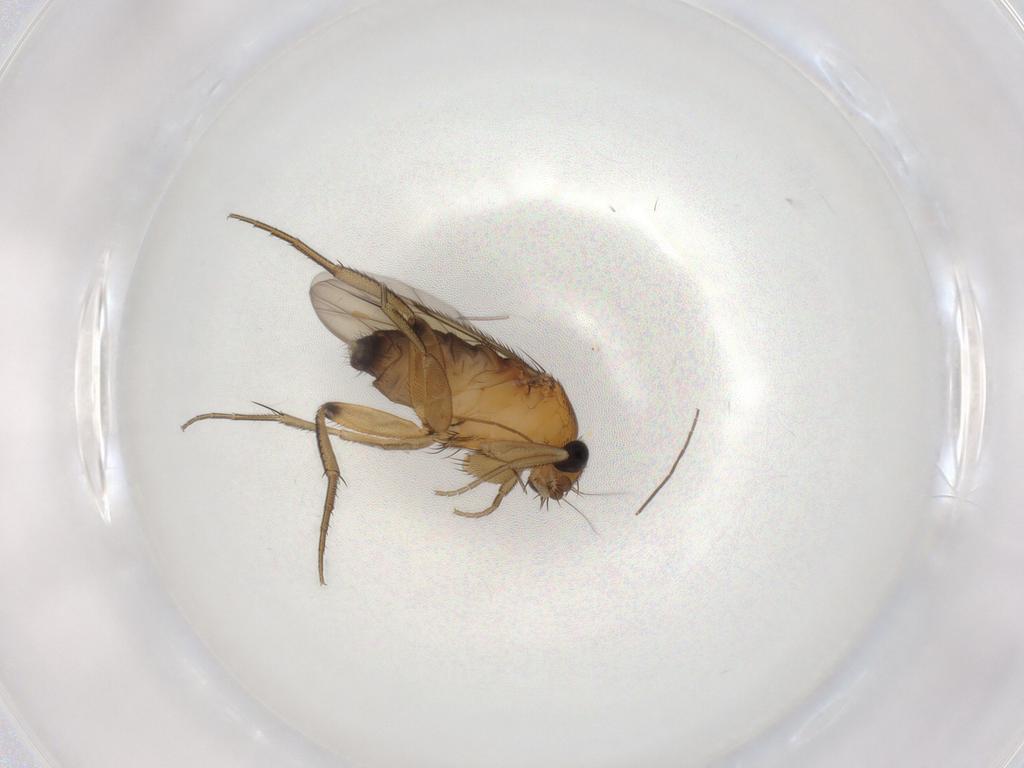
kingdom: Animalia
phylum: Arthropoda
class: Insecta
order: Diptera
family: Phoridae
